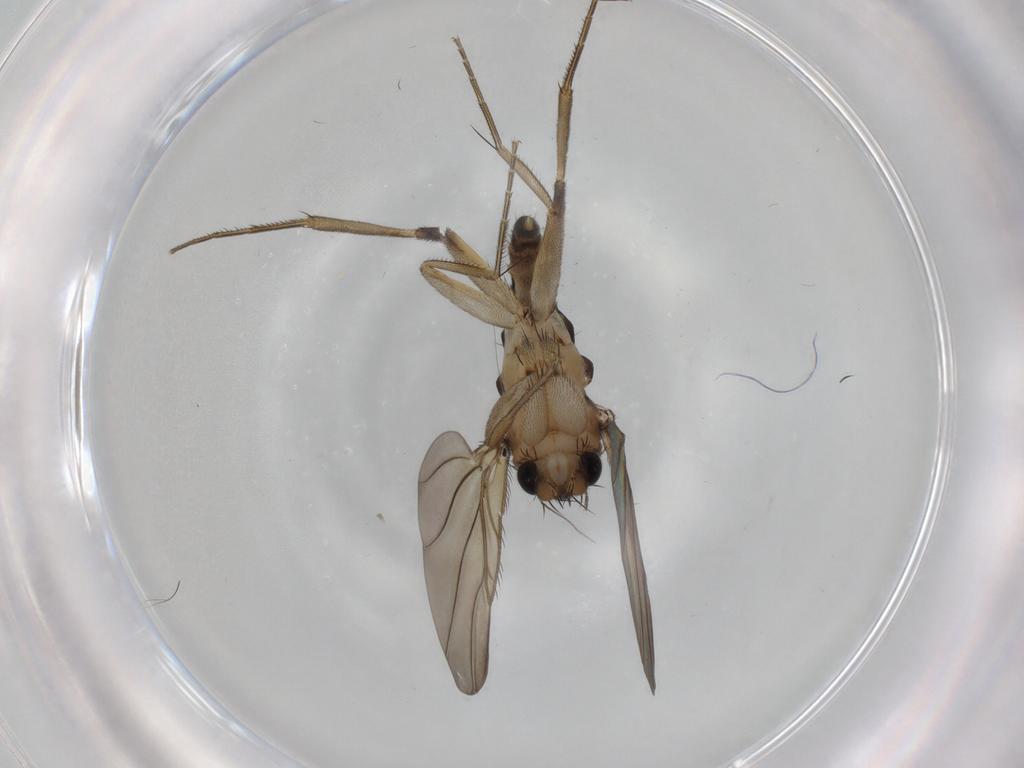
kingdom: Animalia
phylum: Arthropoda
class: Insecta
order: Diptera
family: Phoridae
